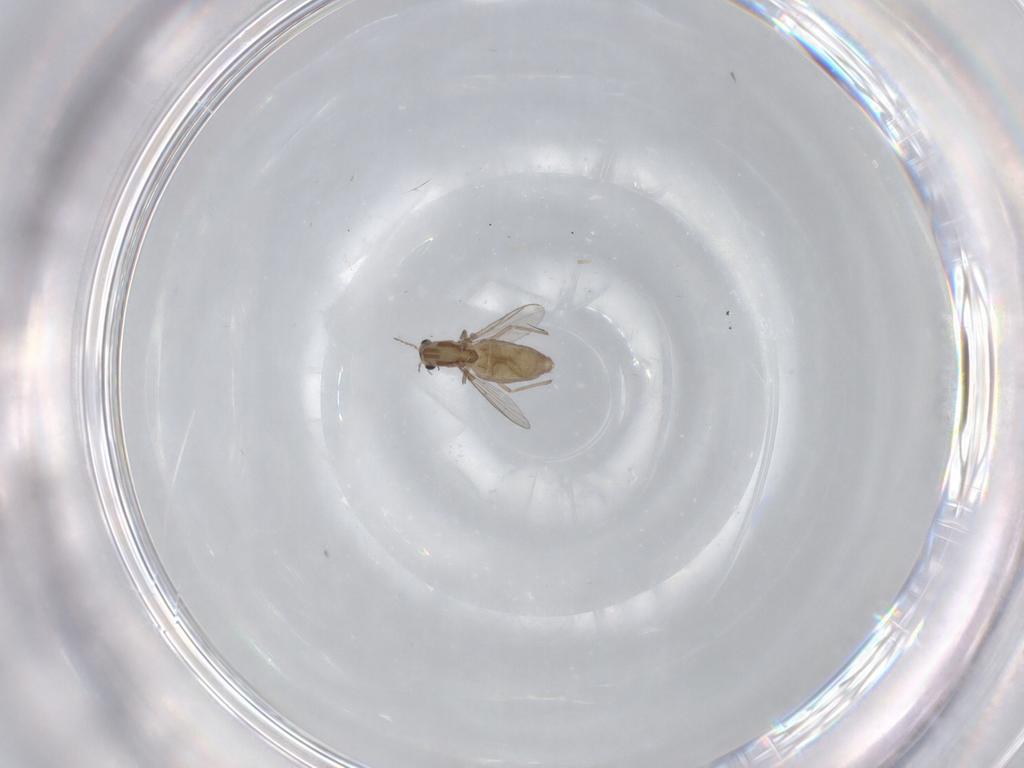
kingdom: Animalia
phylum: Arthropoda
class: Insecta
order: Diptera
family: Chironomidae
